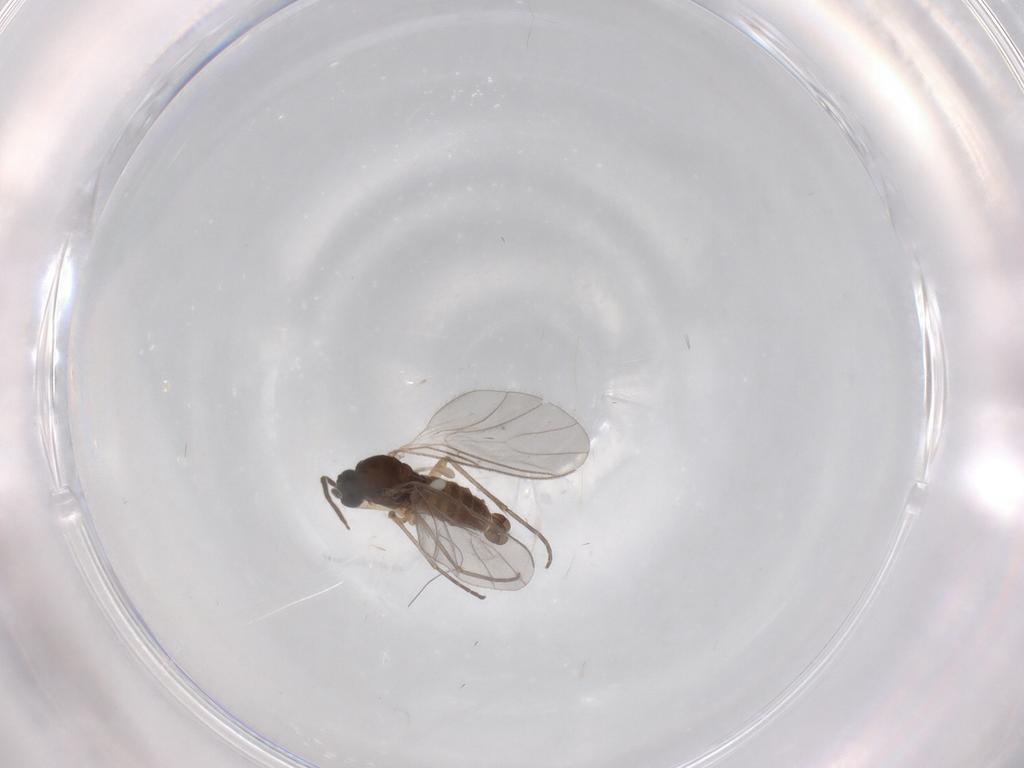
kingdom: Animalia
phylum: Arthropoda
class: Insecta
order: Diptera
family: Sciaridae
